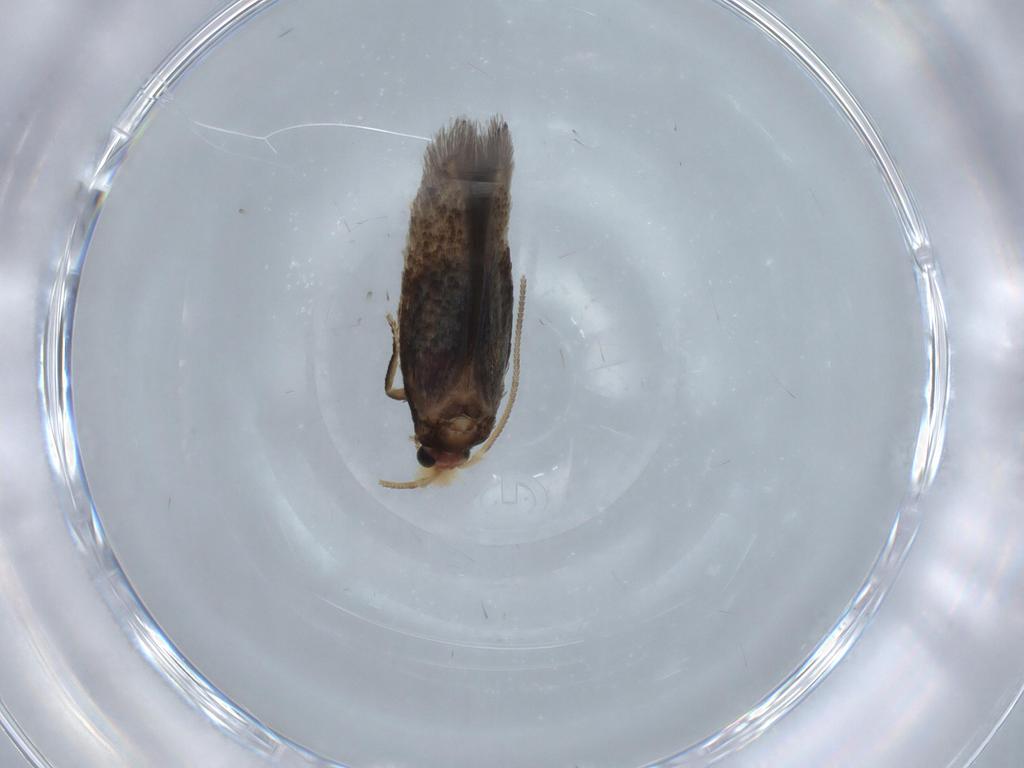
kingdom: Animalia
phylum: Arthropoda
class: Insecta
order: Lepidoptera
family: Nepticulidae
